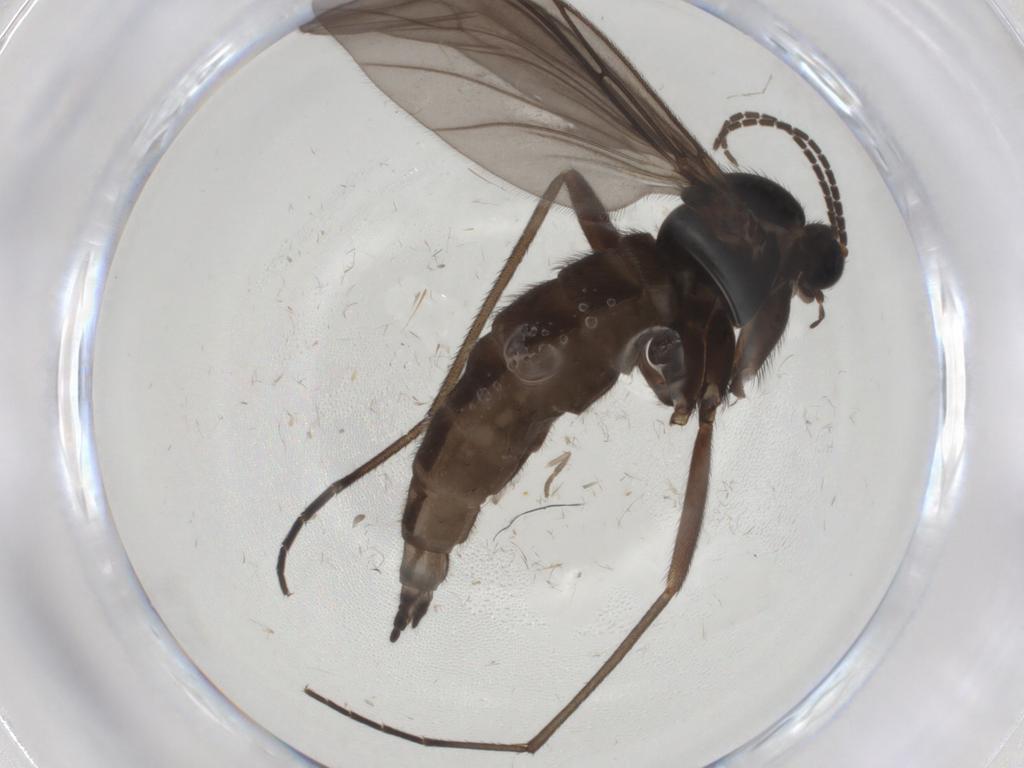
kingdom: Animalia
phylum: Arthropoda
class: Insecta
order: Diptera
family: Sciaridae
